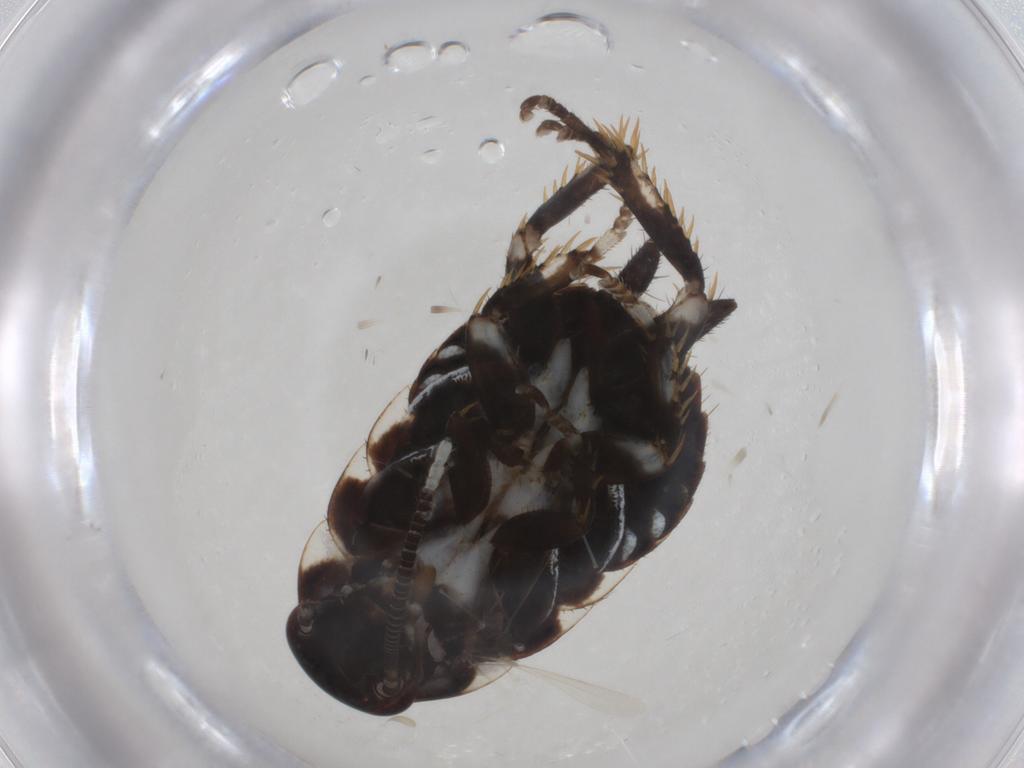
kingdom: Animalia
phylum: Arthropoda
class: Insecta
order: Blattodea
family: Blaberidae
